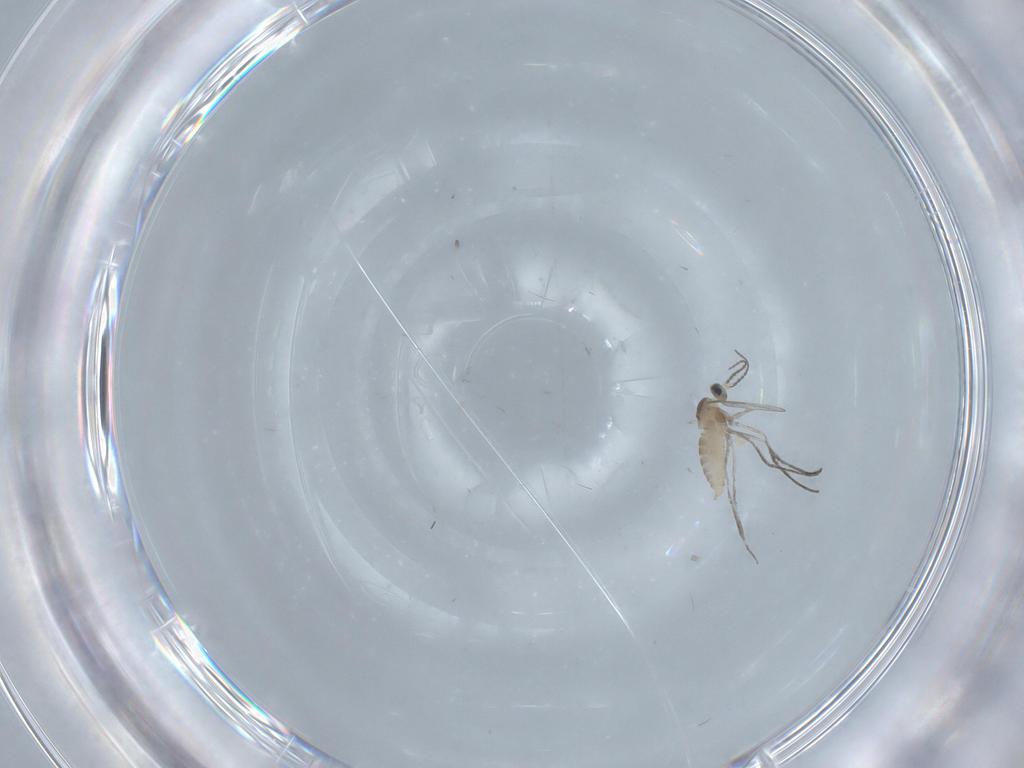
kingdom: Animalia
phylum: Arthropoda
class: Insecta
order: Diptera
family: Cecidomyiidae
